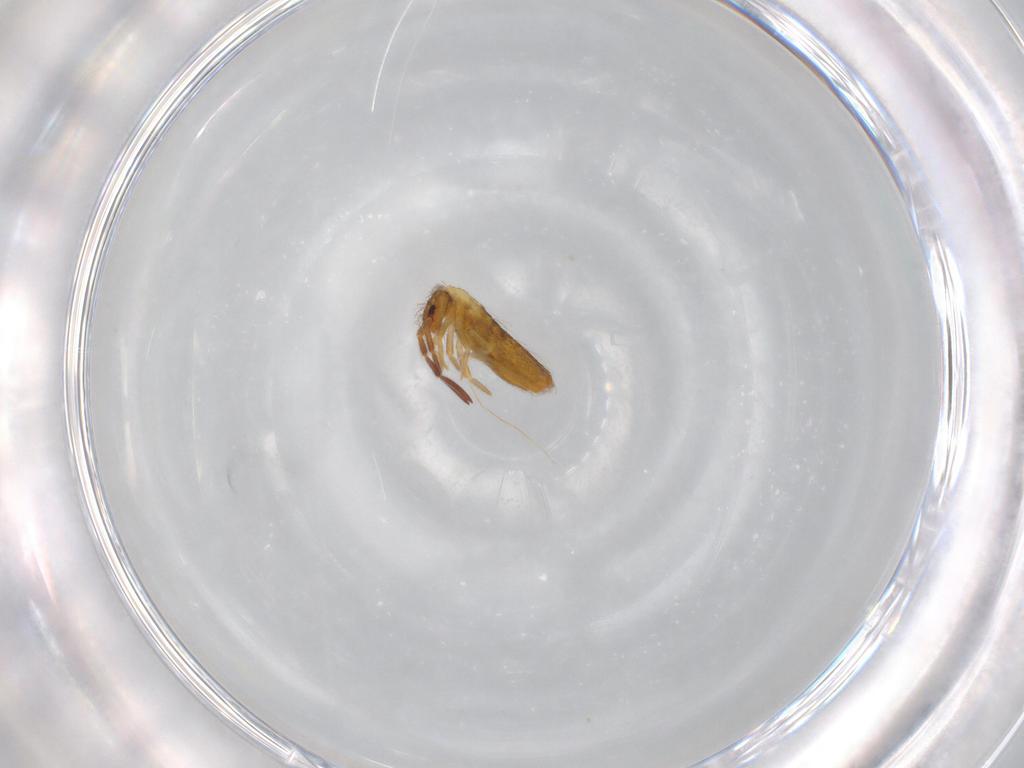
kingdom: Animalia
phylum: Arthropoda
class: Collembola
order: Entomobryomorpha
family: Entomobryidae
